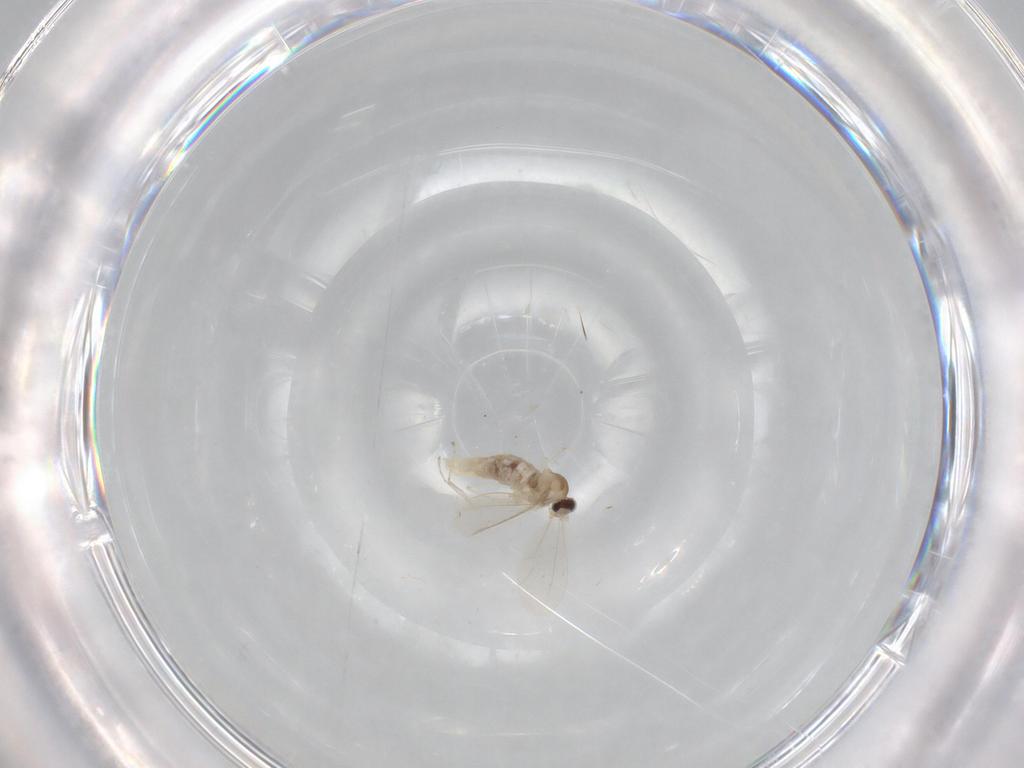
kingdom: Animalia
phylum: Arthropoda
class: Insecta
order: Diptera
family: Cecidomyiidae
